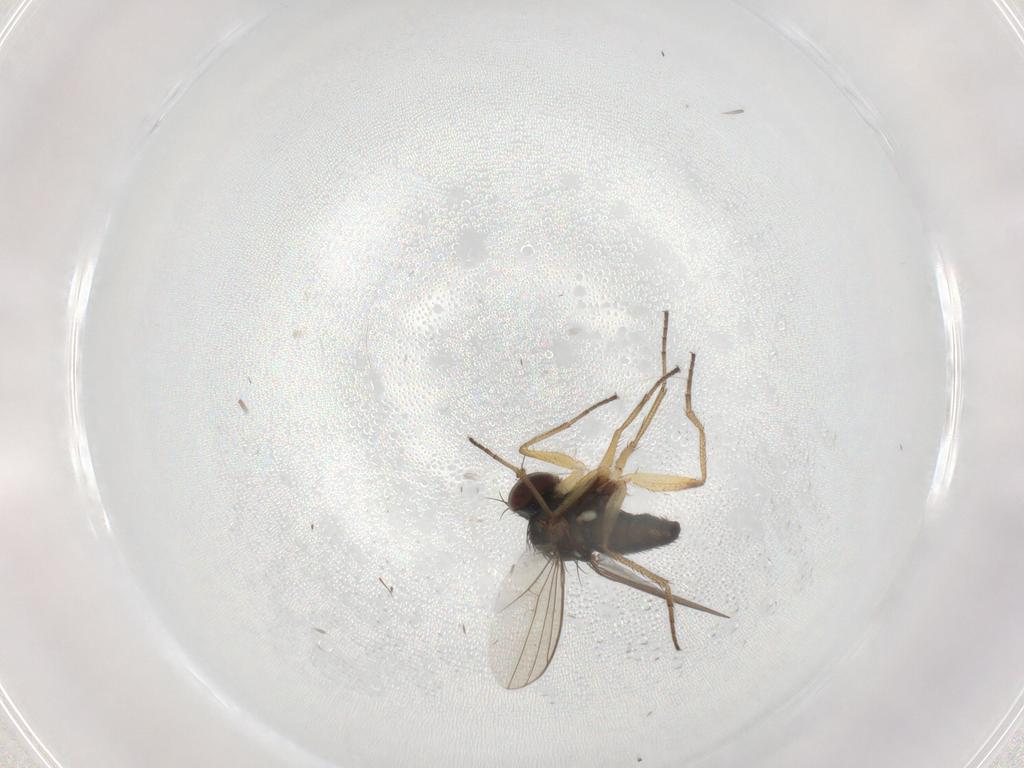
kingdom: Animalia
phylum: Arthropoda
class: Insecta
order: Diptera
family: Dolichopodidae
